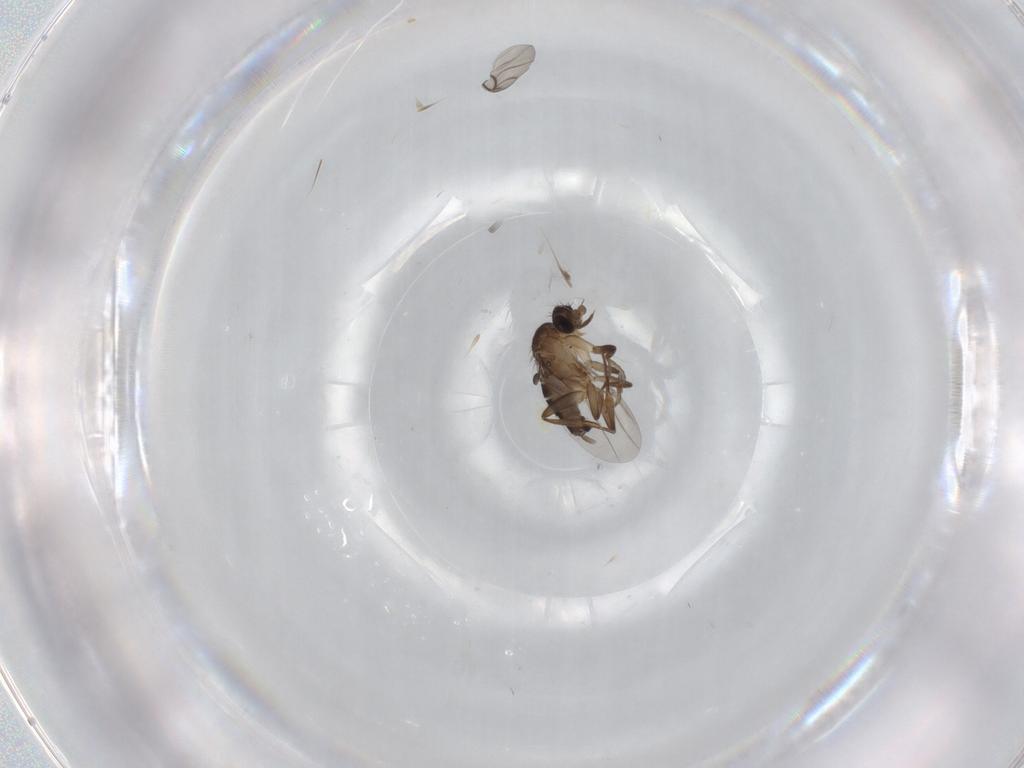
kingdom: Animalia
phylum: Arthropoda
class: Insecta
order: Diptera
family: Phoridae
